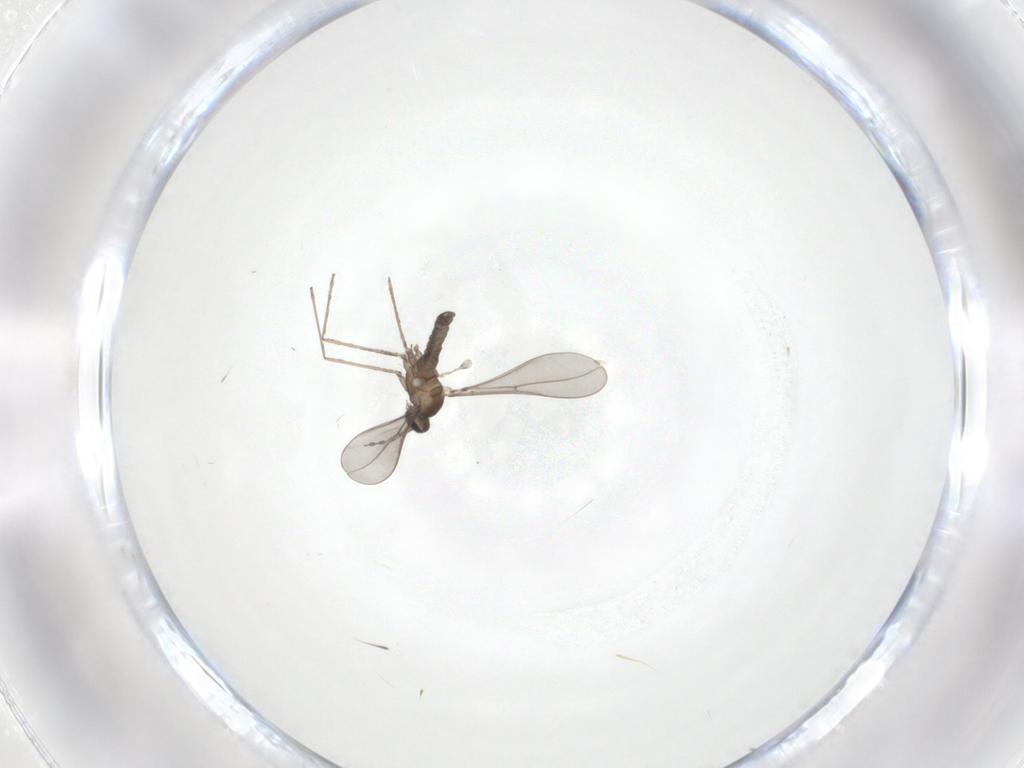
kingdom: Animalia
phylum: Arthropoda
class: Insecta
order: Diptera
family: Cecidomyiidae
